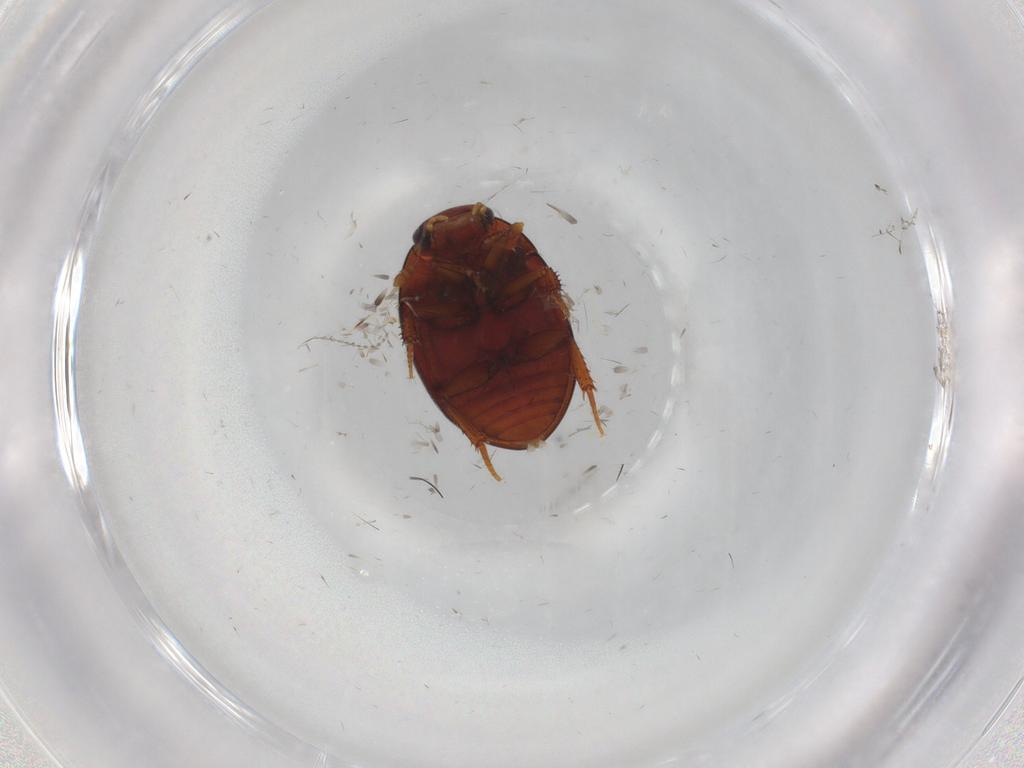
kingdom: Animalia
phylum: Arthropoda
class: Insecta
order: Coleoptera
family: Hydrophilidae
